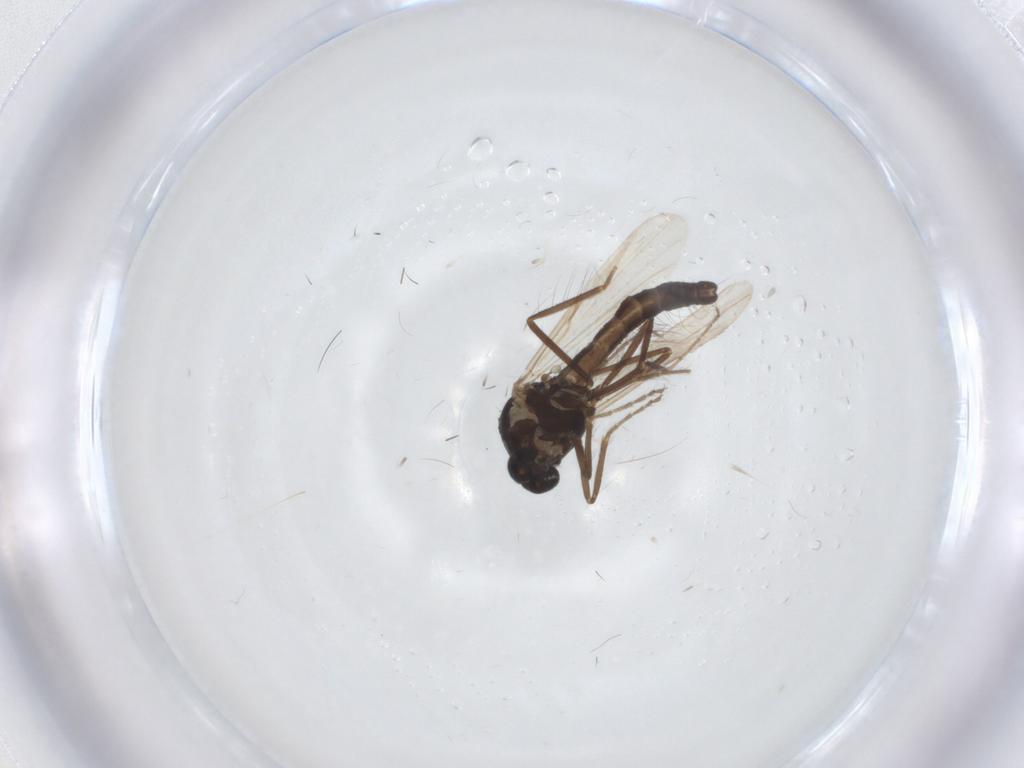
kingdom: Animalia
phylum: Arthropoda
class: Insecta
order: Diptera
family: Ceratopogonidae
